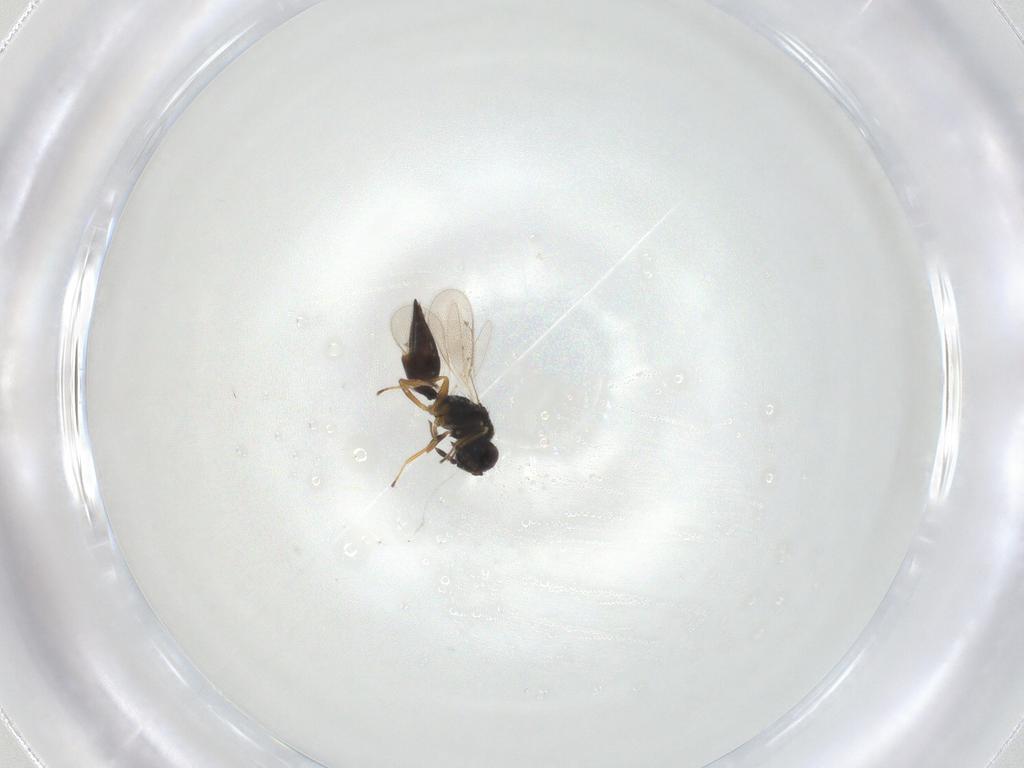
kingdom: Animalia
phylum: Arthropoda
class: Insecta
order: Hymenoptera
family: Eulophidae
